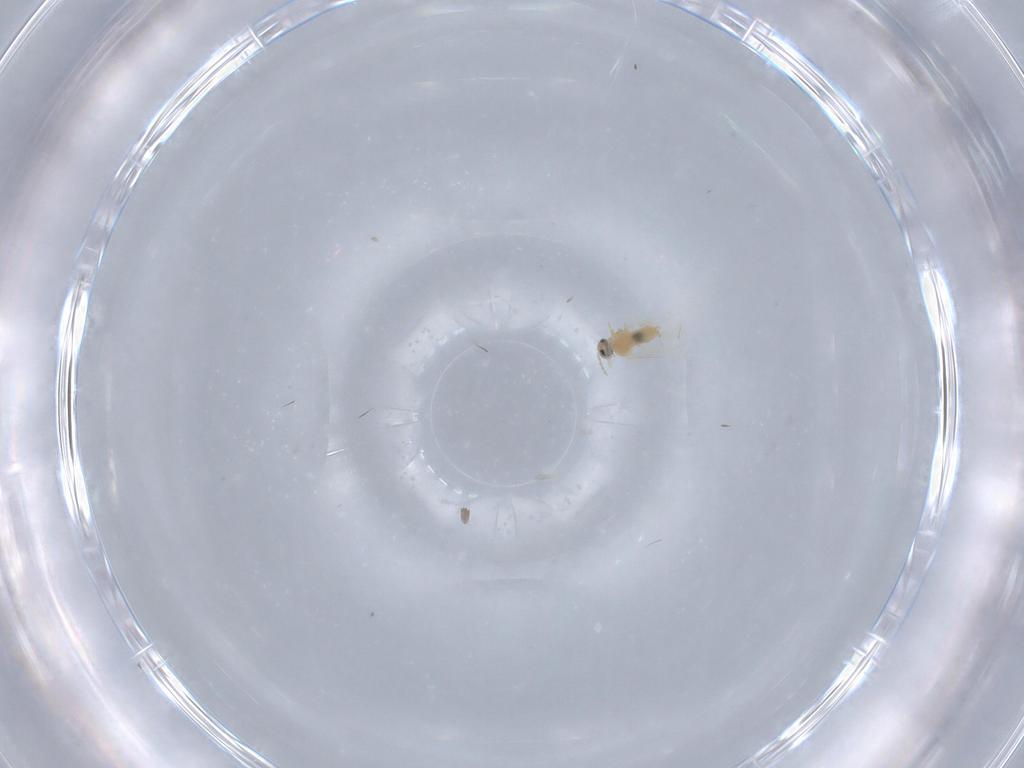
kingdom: Animalia
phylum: Arthropoda
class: Insecta
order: Diptera
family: Cecidomyiidae
